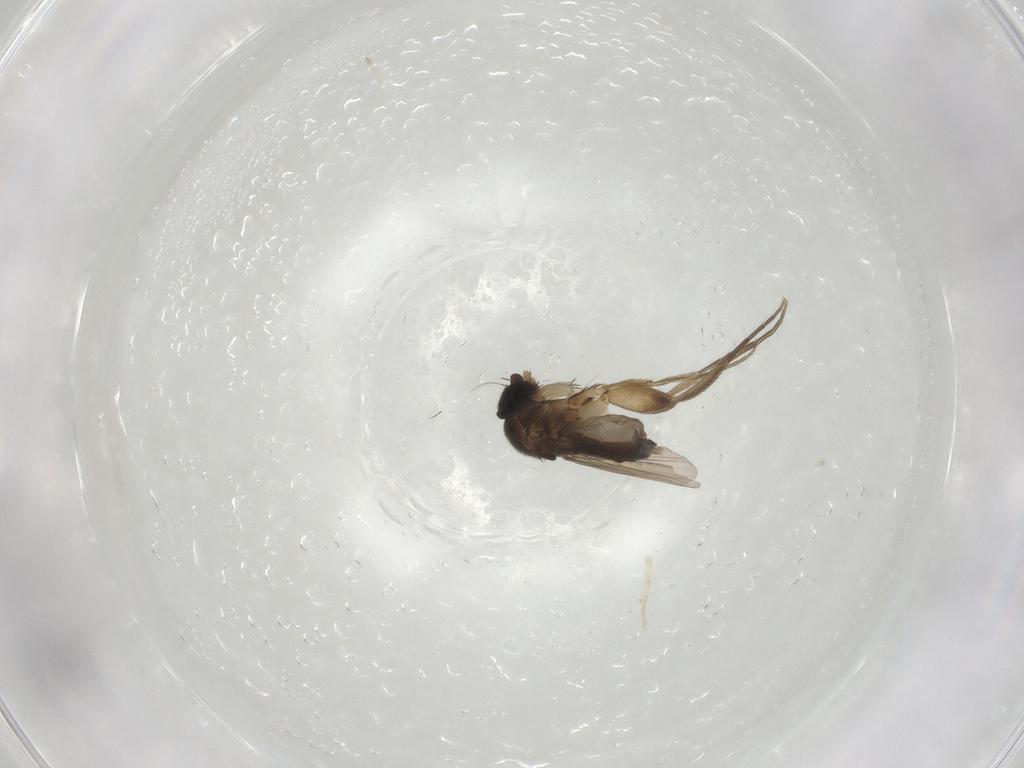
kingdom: Animalia
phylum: Arthropoda
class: Insecta
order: Diptera
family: Phoridae
